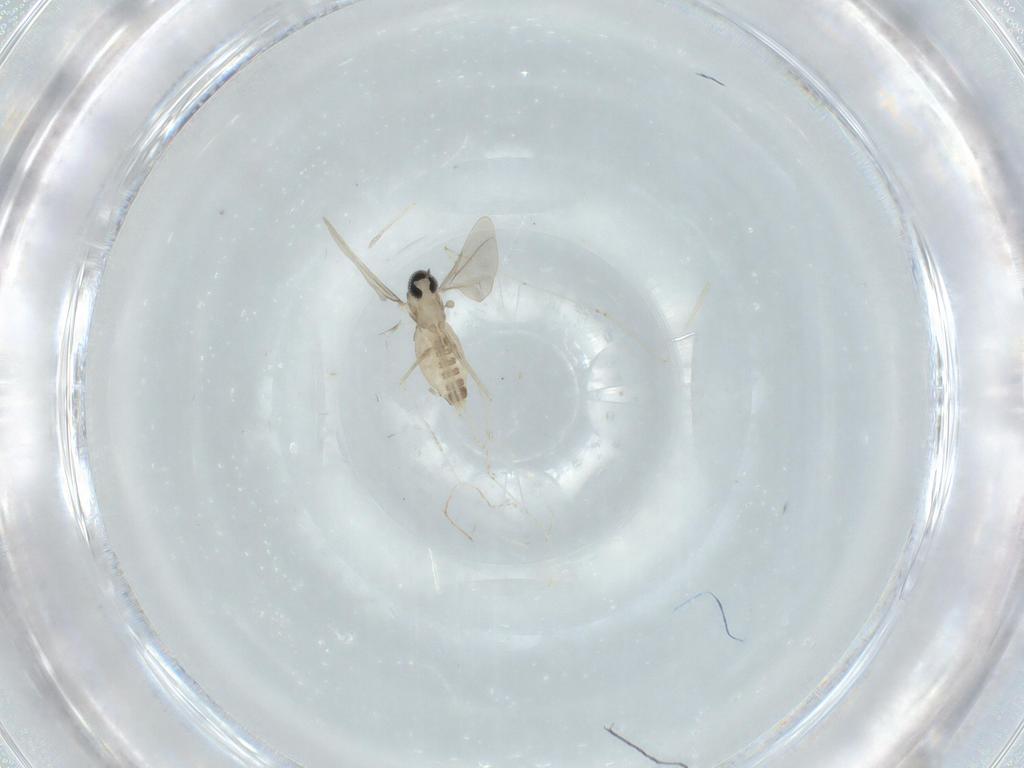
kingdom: Animalia
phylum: Arthropoda
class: Insecta
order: Diptera
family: Cecidomyiidae
